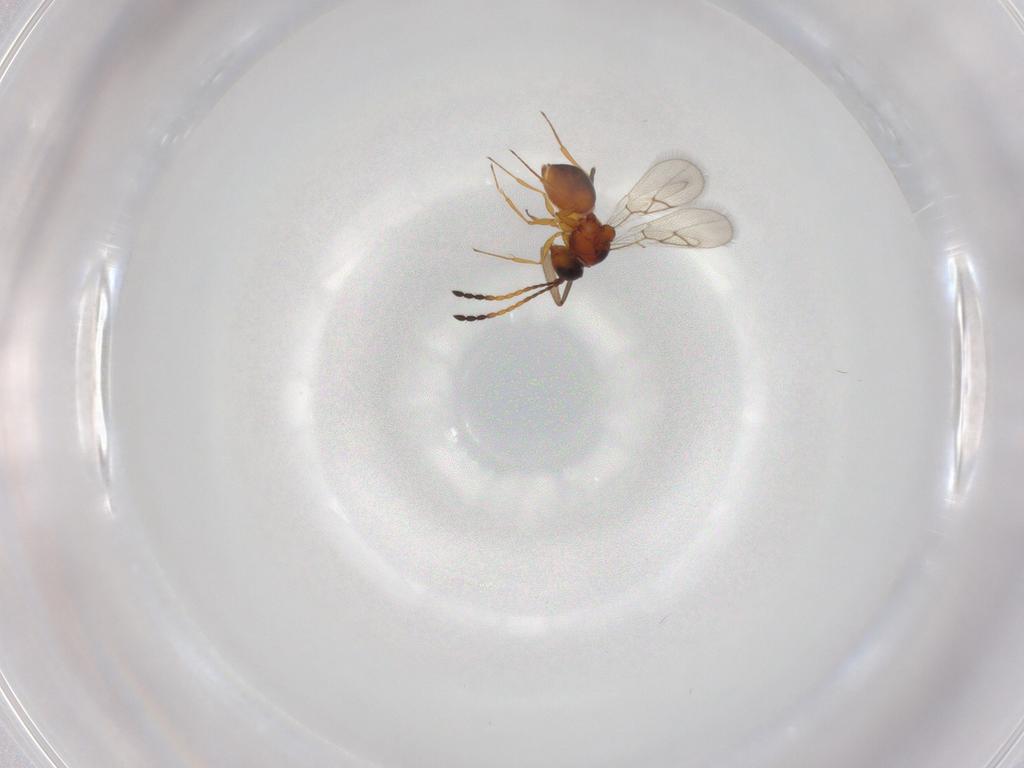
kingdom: Animalia
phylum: Arthropoda
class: Insecta
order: Hymenoptera
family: Figitidae
